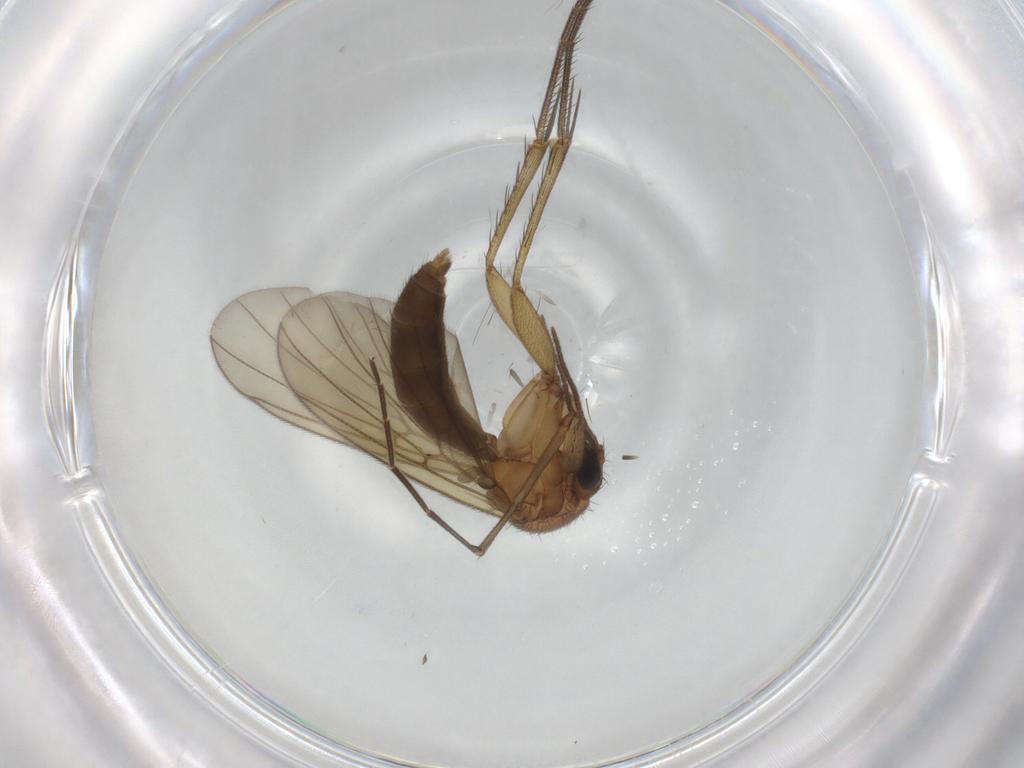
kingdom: Animalia
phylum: Arthropoda
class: Insecta
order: Diptera
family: Mycetophilidae
